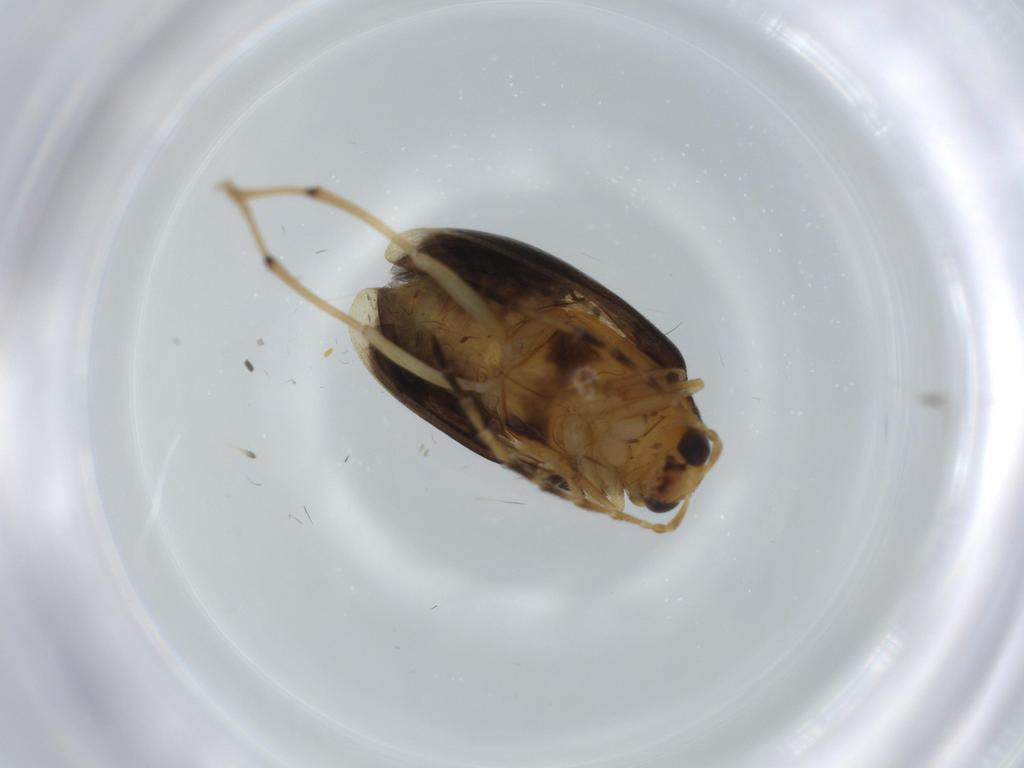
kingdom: Animalia
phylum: Arthropoda
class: Insecta
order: Coleoptera
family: Chrysomelidae
